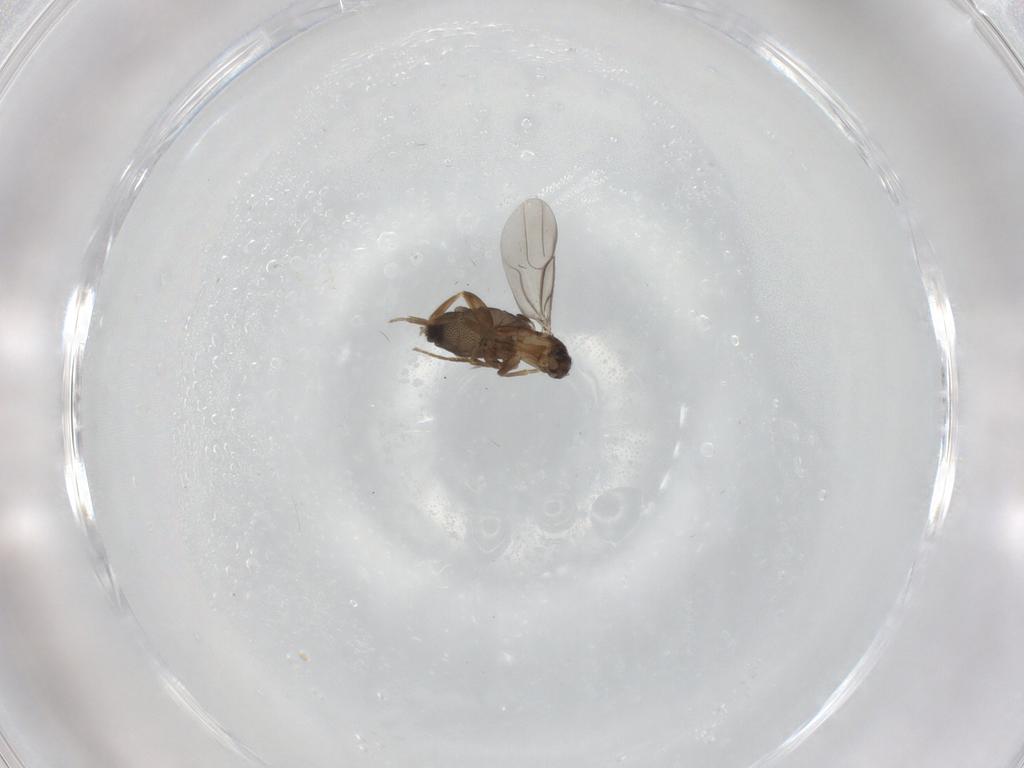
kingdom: Animalia
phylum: Arthropoda
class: Insecta
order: Diptera
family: Phoridae
